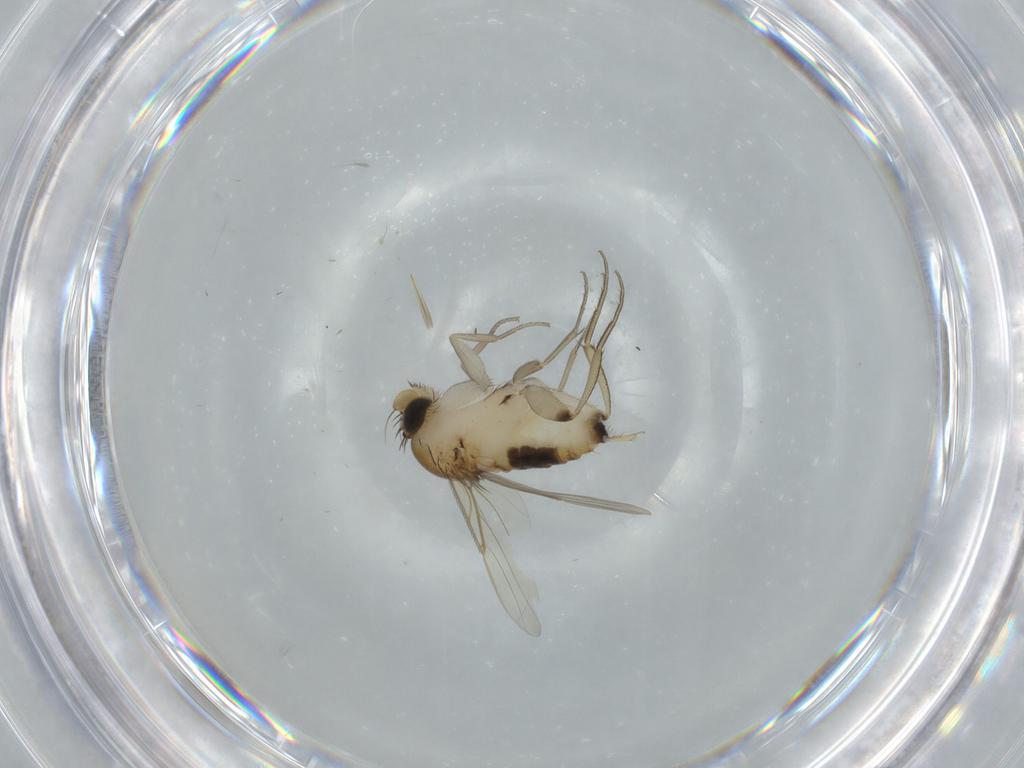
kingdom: Animalia
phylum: Arthropoda
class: Insecta
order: Diptera
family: Phoridae
